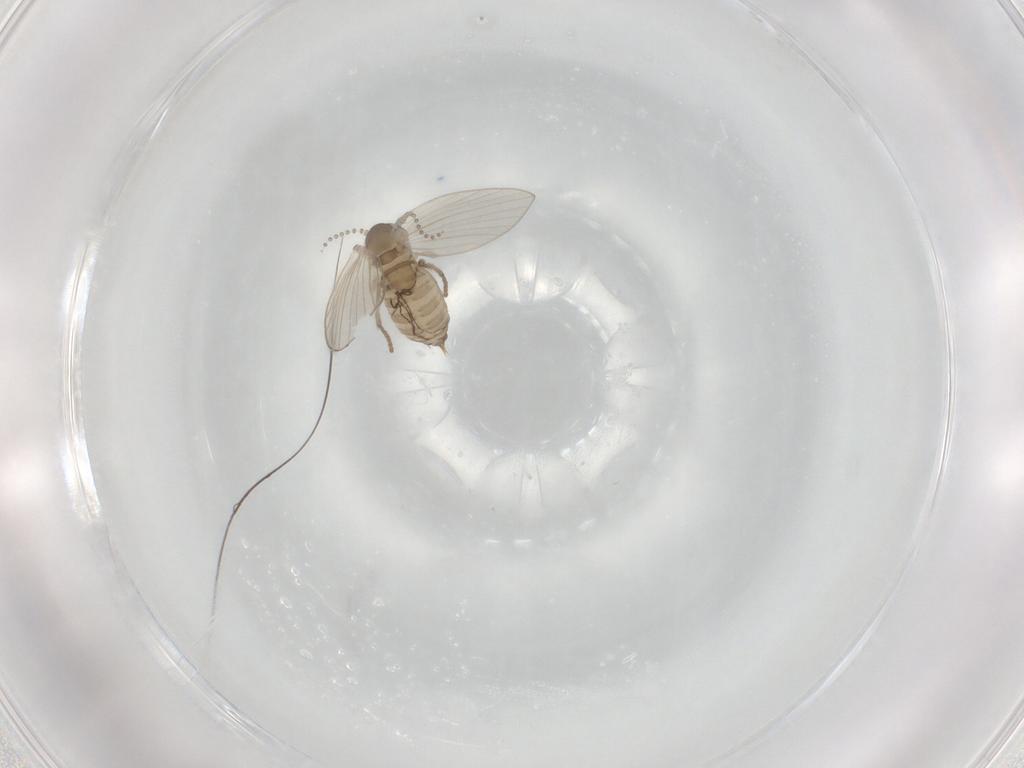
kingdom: Animalia
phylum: Arthropoda
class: Insecta
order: Diptera
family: Psychodidae
